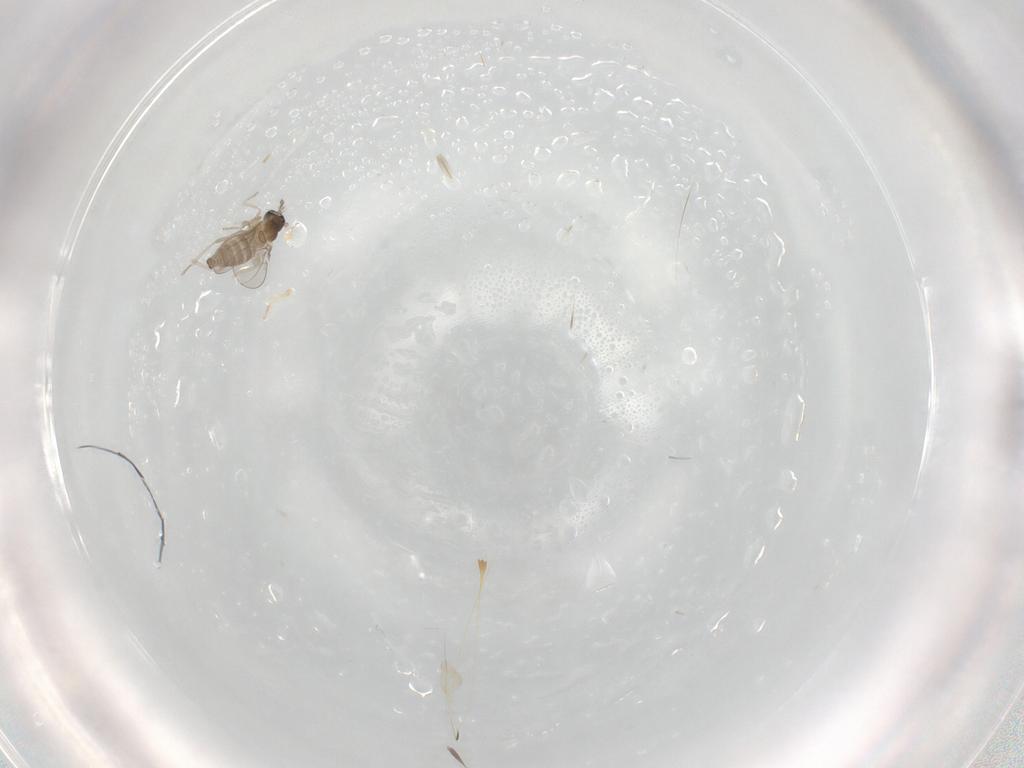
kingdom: Animalia
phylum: Arthropoda
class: Insecta
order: Diptera
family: Cecidomyiidae
